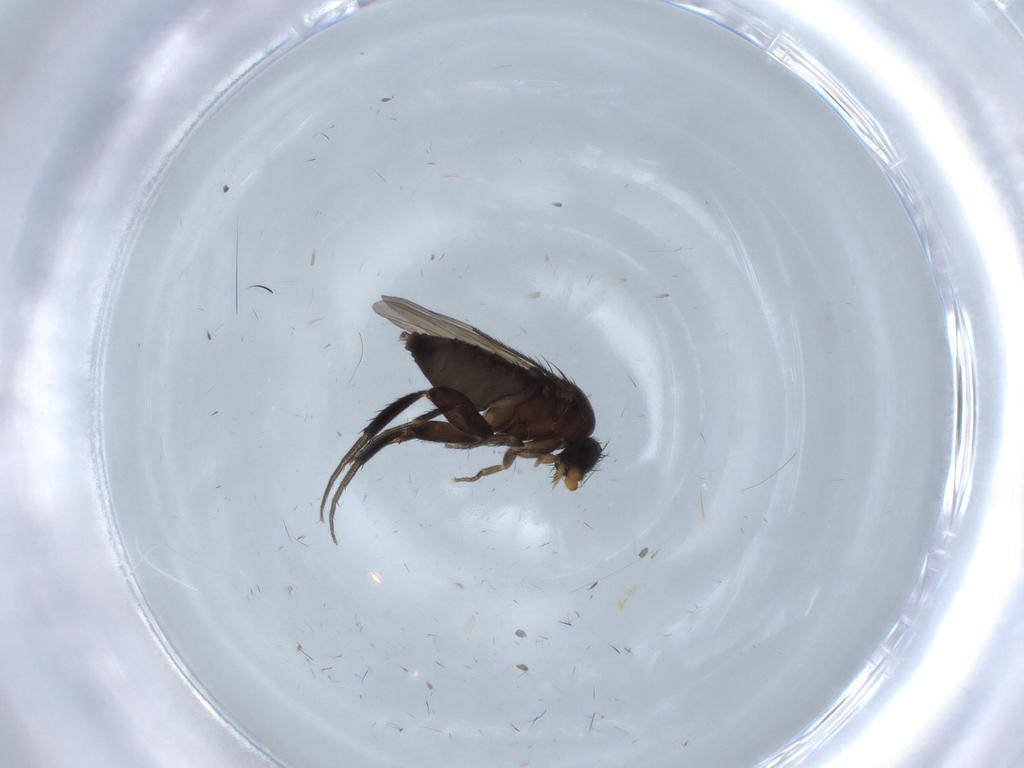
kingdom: Animalia
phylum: Arthropoda
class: Insecta
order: Diptera
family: Phoridae
